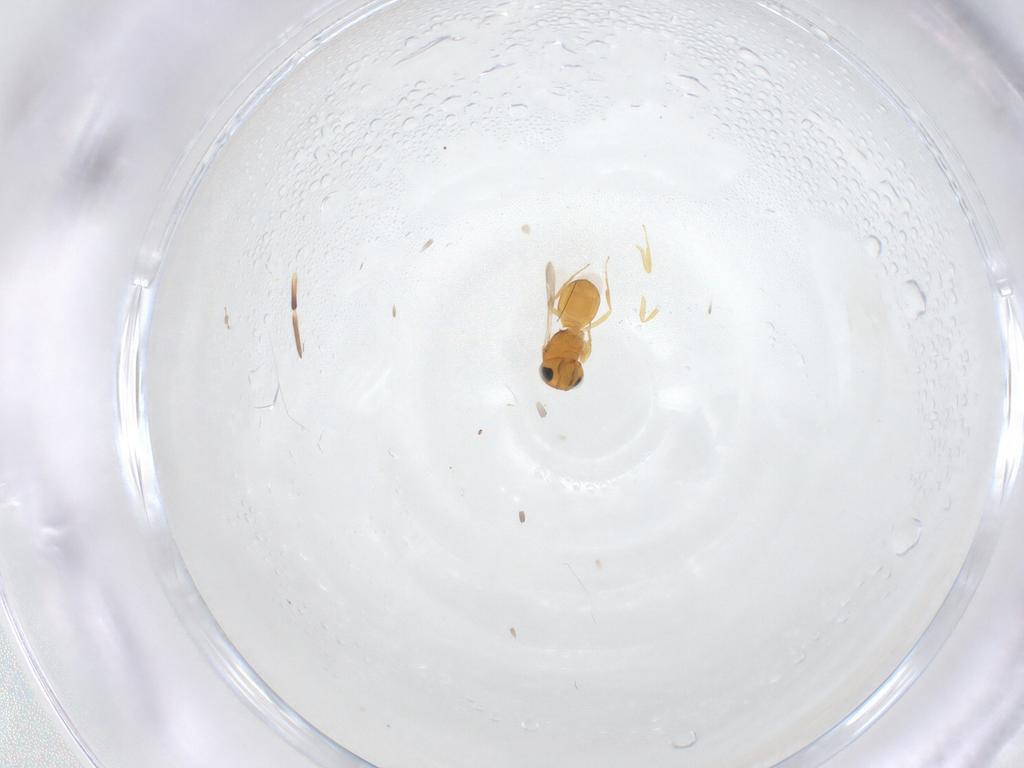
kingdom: Animalia
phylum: Arthropoda
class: Insecta
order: Hymenoptera
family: Scelionidae
